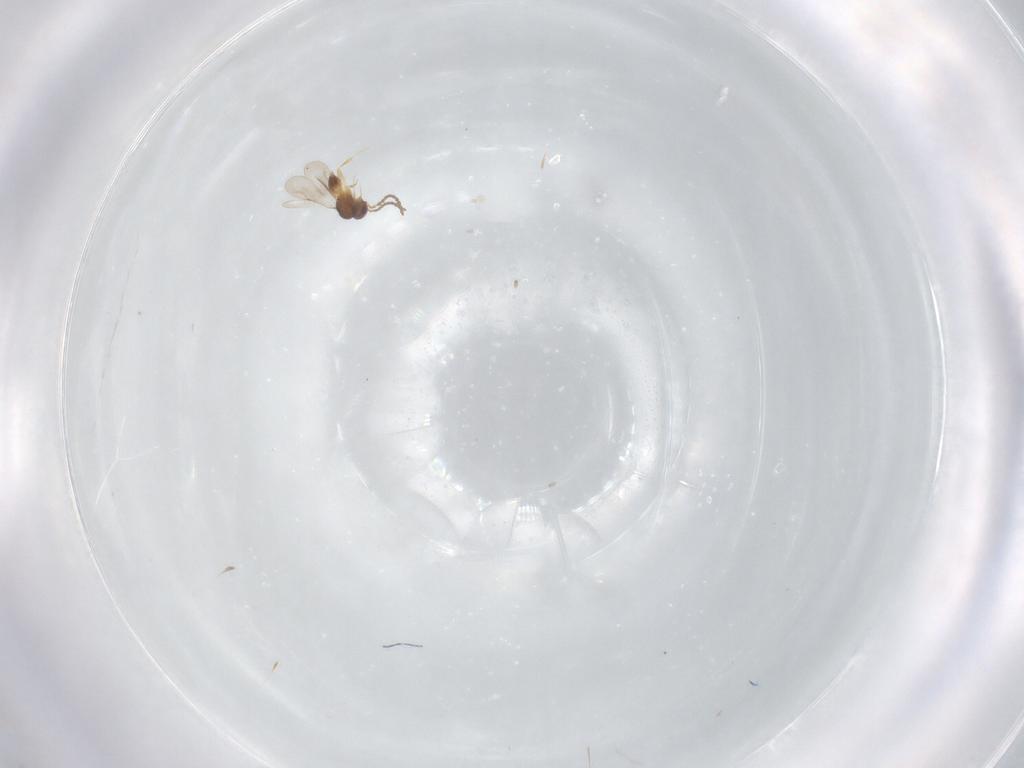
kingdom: Animalia
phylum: Arthropoda
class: Insecta
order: Hymenoptera
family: Ceraphronidae
